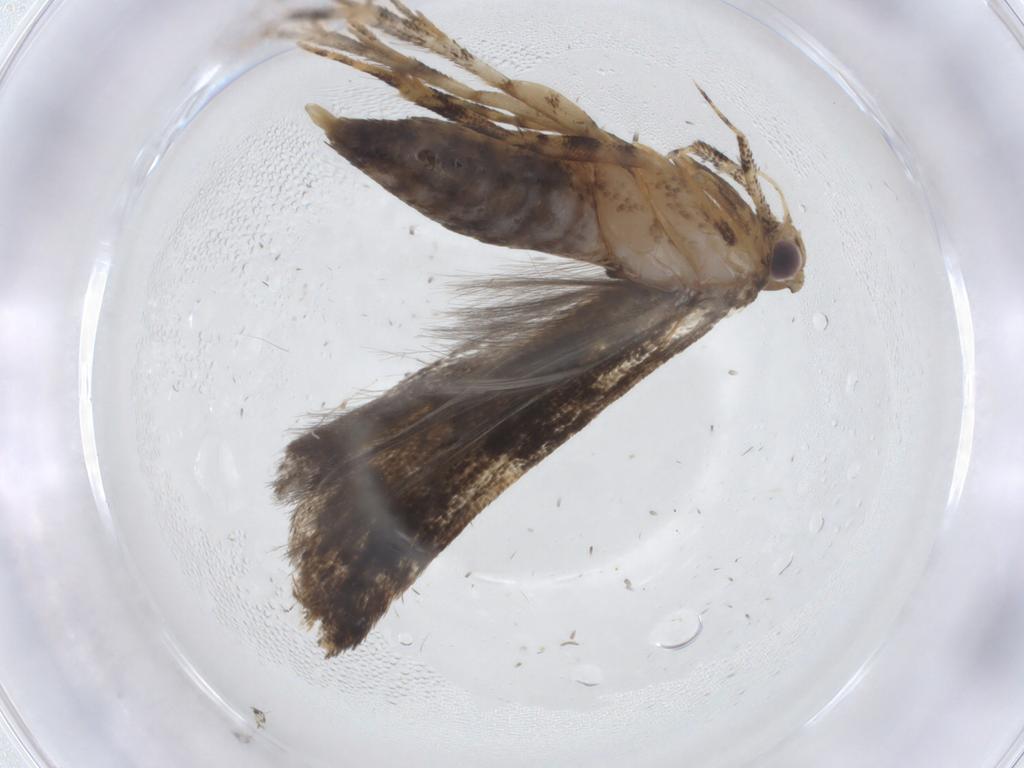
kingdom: Animalia
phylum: Arthropoda
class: Insecta
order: Lepidoptera
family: Gelechiidae
